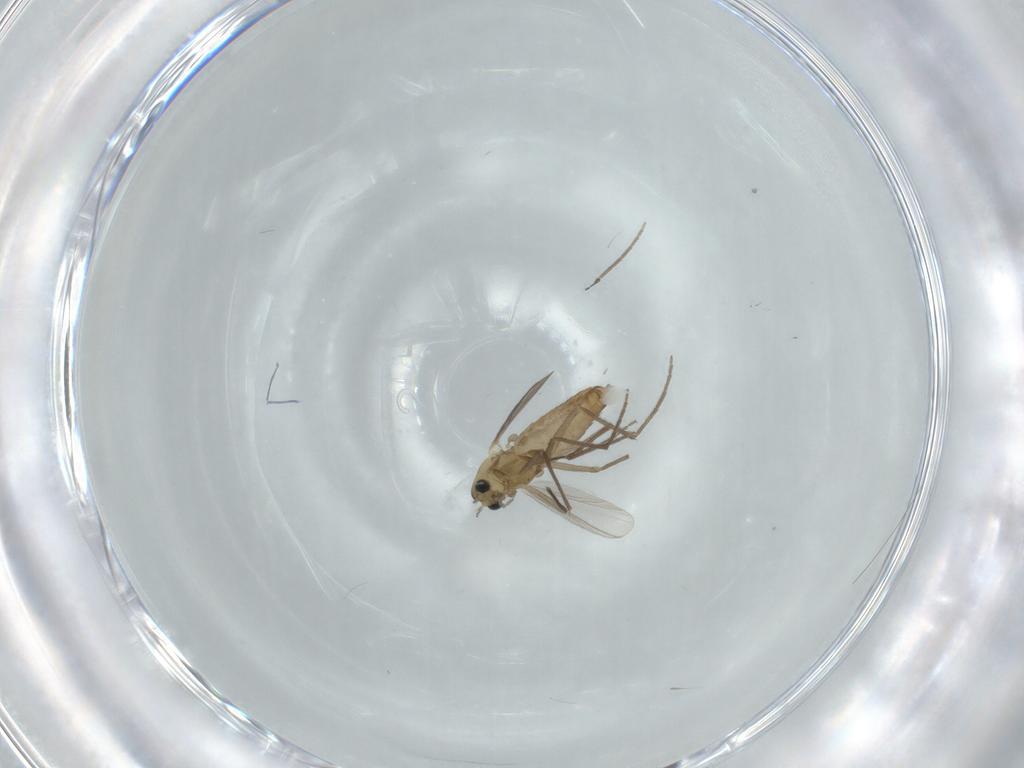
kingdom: Animalia
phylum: Arthropoda
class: Insecta
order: Diptera
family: Chironomidae
